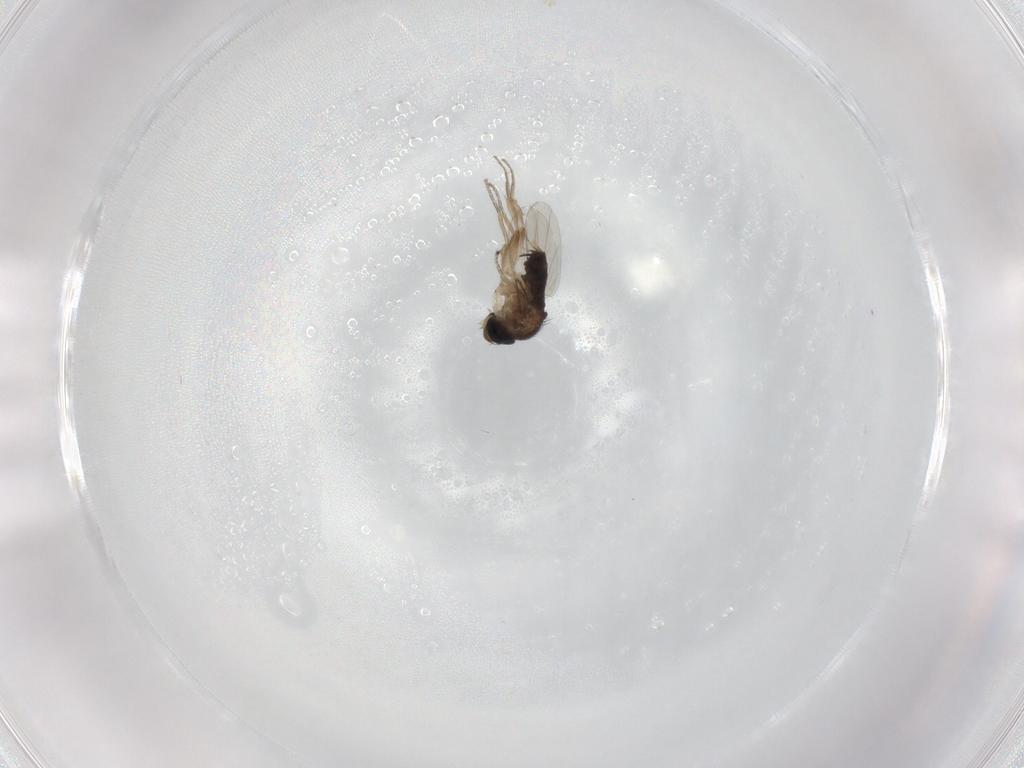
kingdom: Animalia
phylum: Arthropoda
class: Insecta
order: Diptera
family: Phoridae
